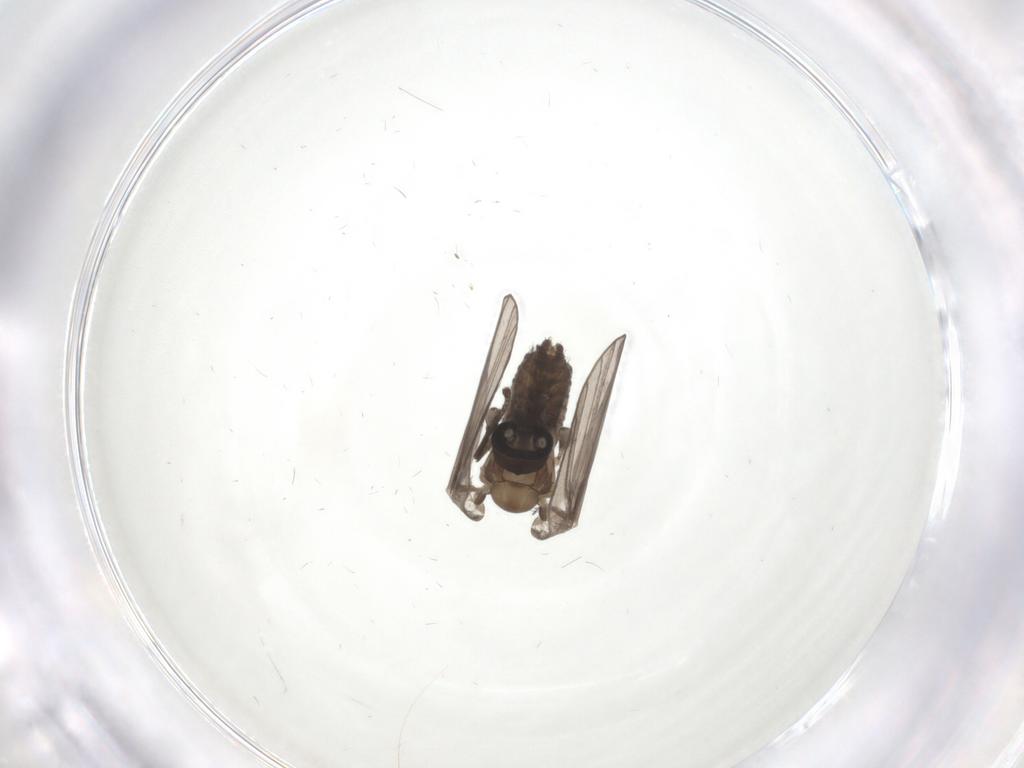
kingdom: Animalia
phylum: Arthropoda
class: Insecta
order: Diptera
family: Psychodidae
